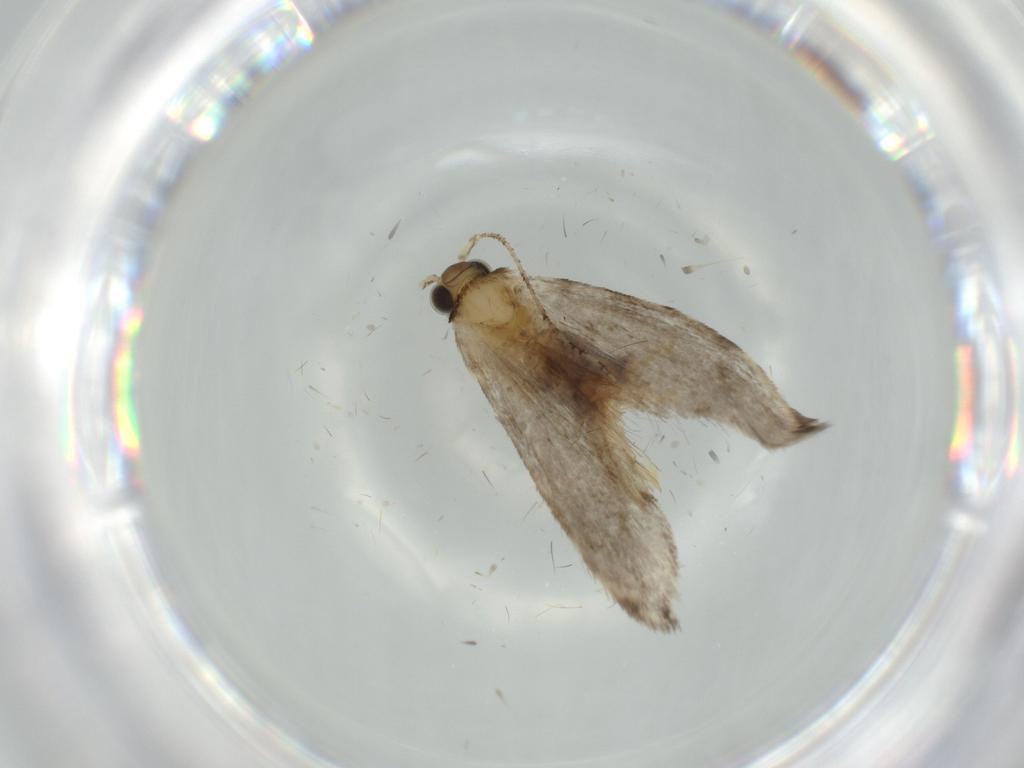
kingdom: Animalia
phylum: Arthropoda
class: Insecta
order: Lepidoptera
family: Tineidae
